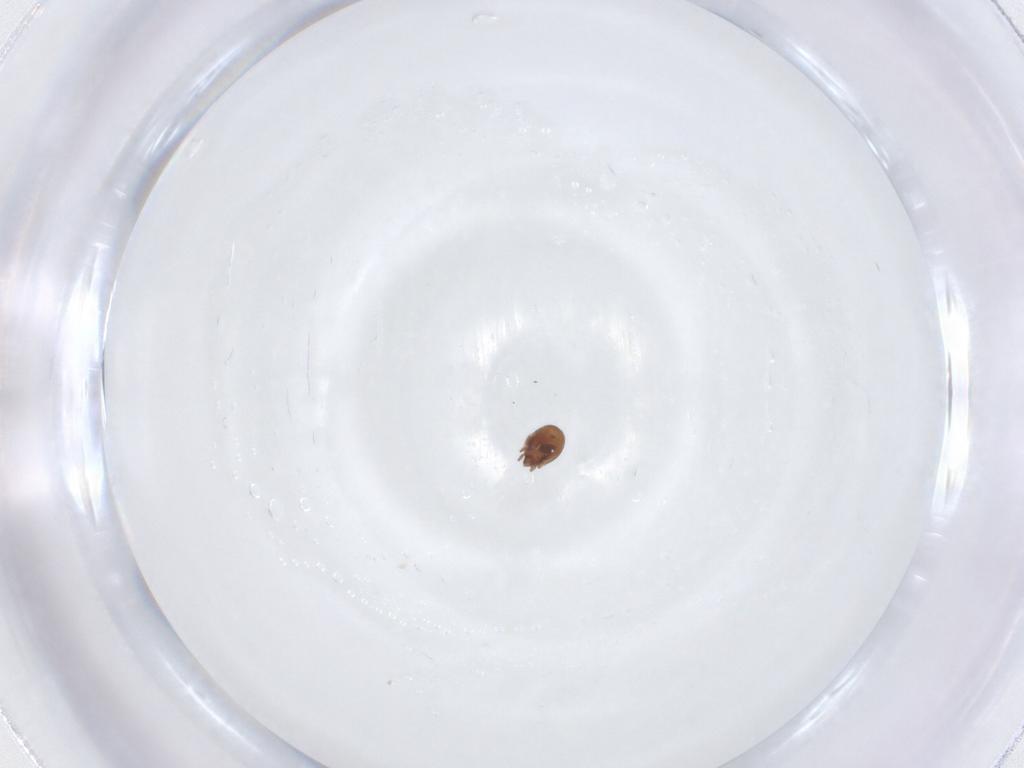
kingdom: Animalia
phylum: Arthropoda
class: Arachnida
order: Sarcoptiformes
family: Scheloribatidae
